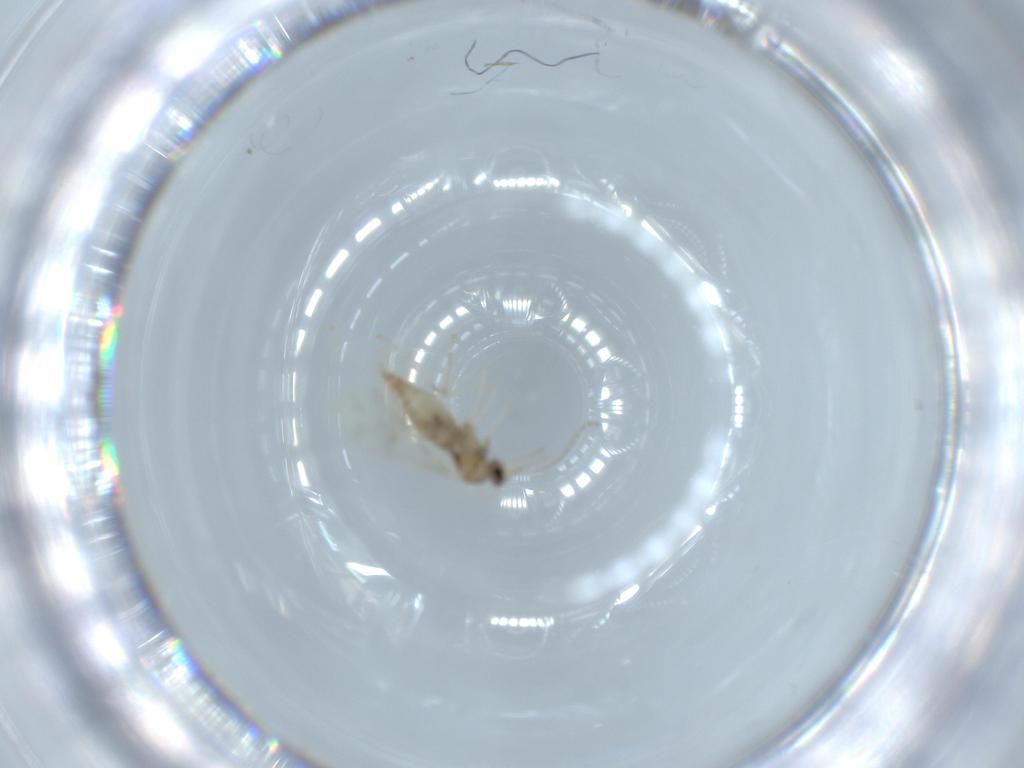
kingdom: Animalia
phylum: Arthropoda
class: Insecta
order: Diptera
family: Cecidomyiidae
